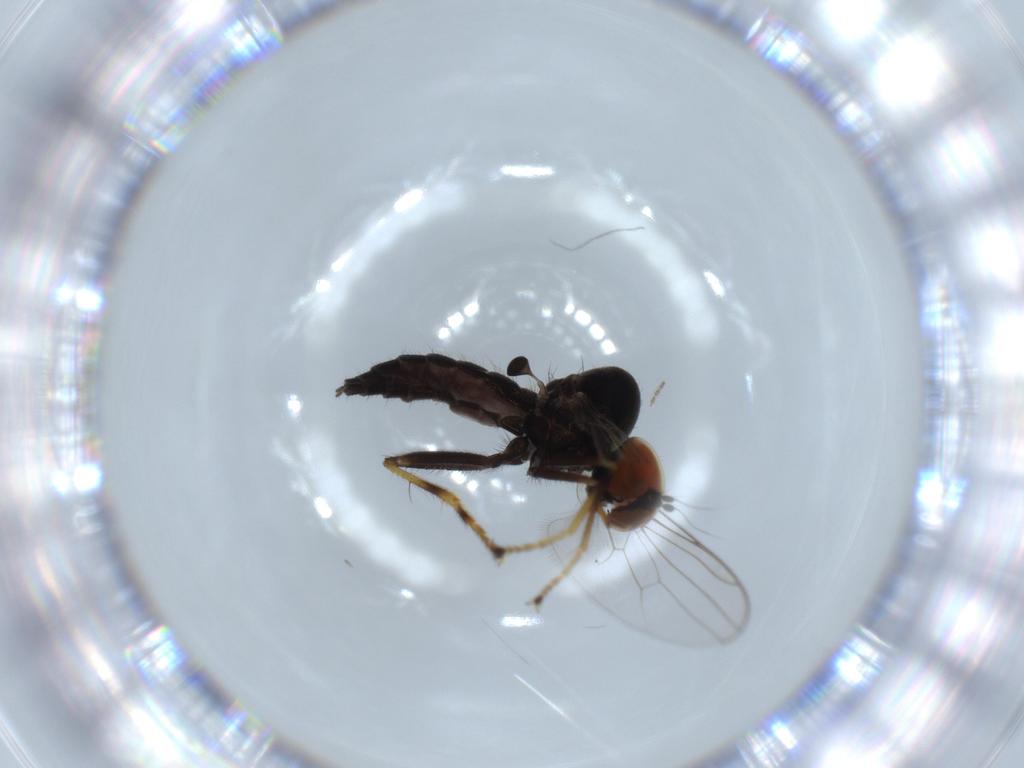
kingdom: Animalia
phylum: Arthropoda
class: Insecta
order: Diptera
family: Hybotidae
